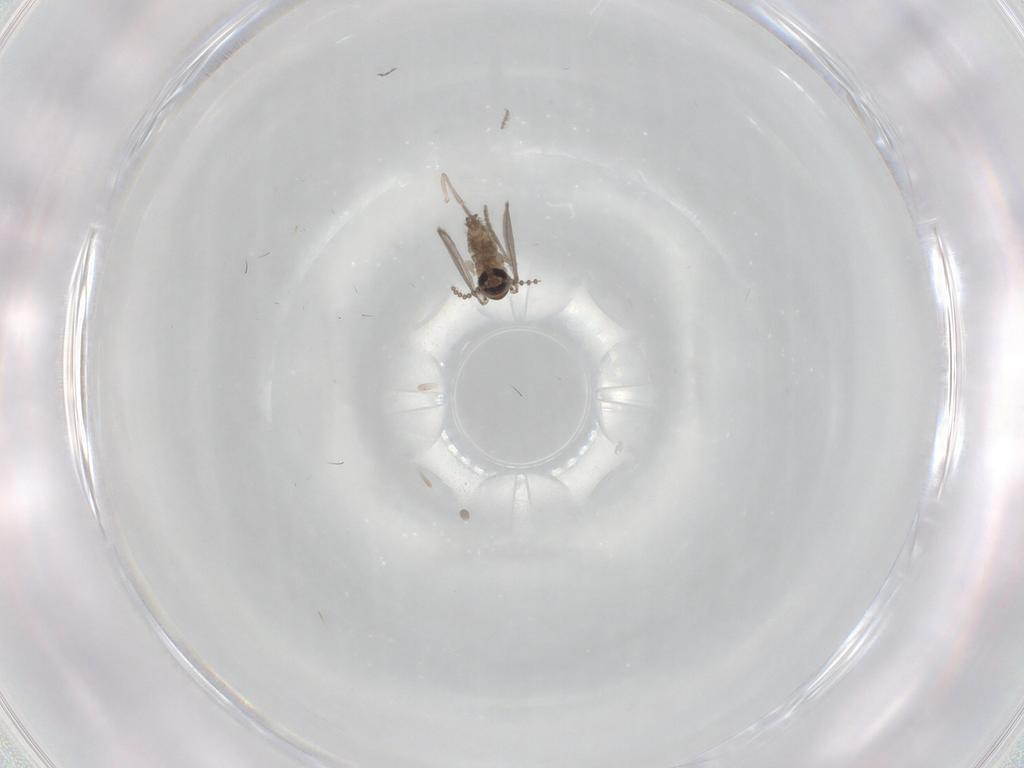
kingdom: Animalia
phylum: Arthropoda
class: Insecta
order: Diptera
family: Psychodidae
